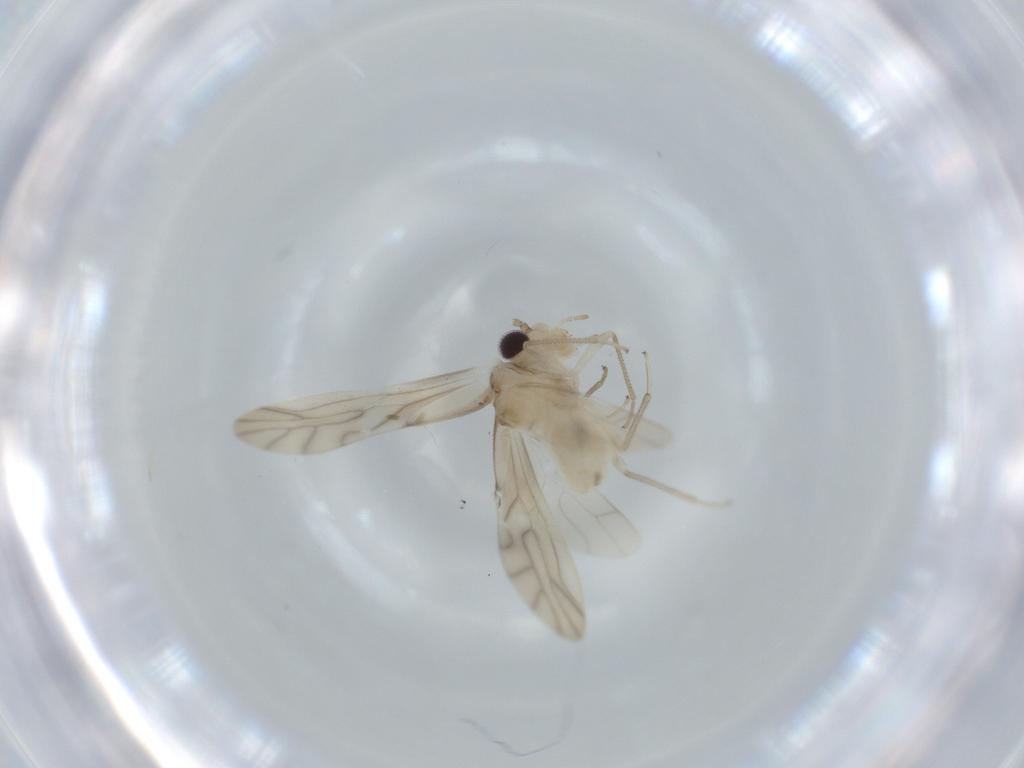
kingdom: Animalia
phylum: Arthropoda
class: Insecta
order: Psocodea
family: Caeciliusidae
